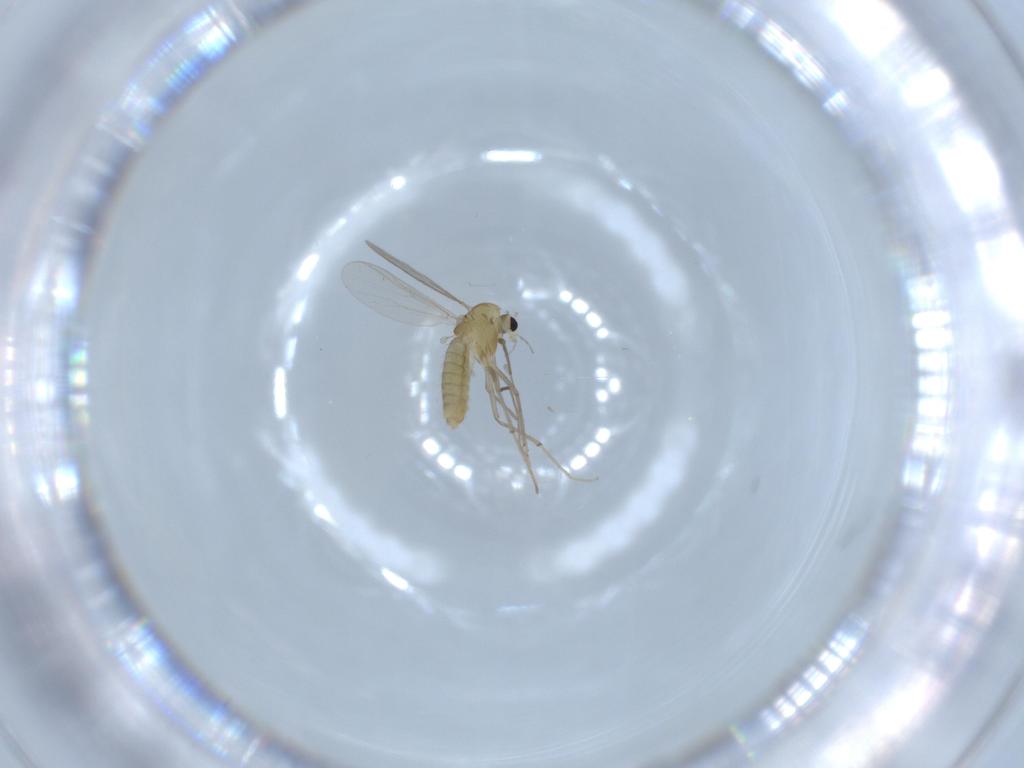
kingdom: Animalia
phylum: Arthropoda
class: Insecta
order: Diptera
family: Chironomidae
